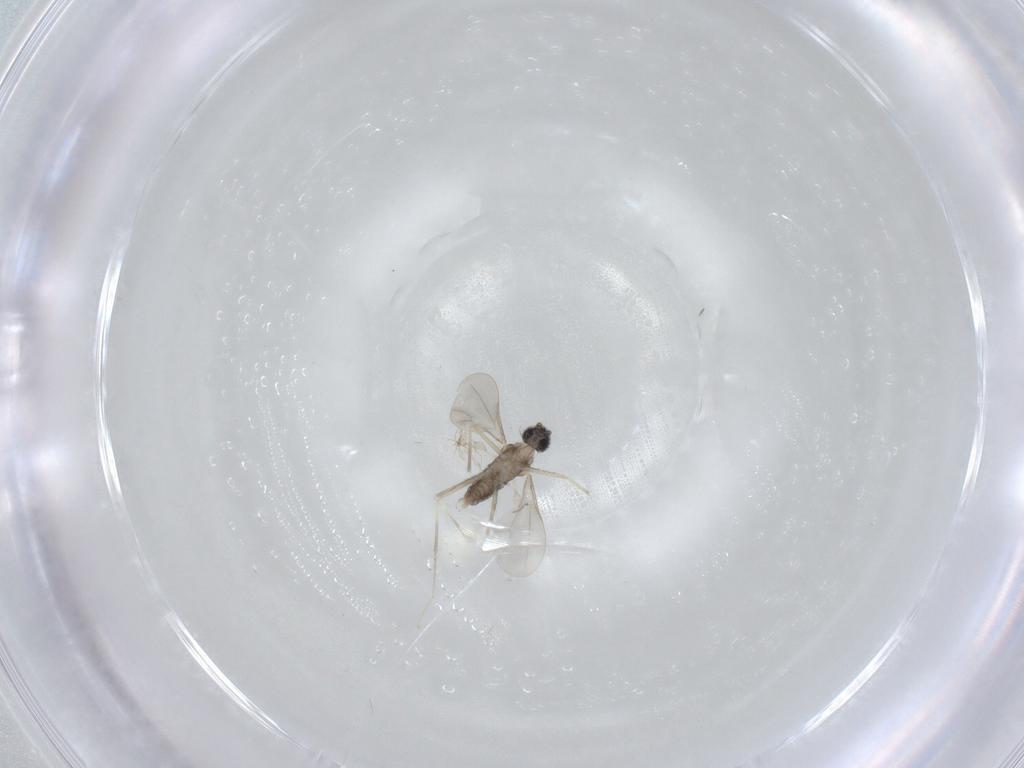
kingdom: Animalia
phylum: Arthropoda
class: Insecta
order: Diptera
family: Cecidomyiidae
